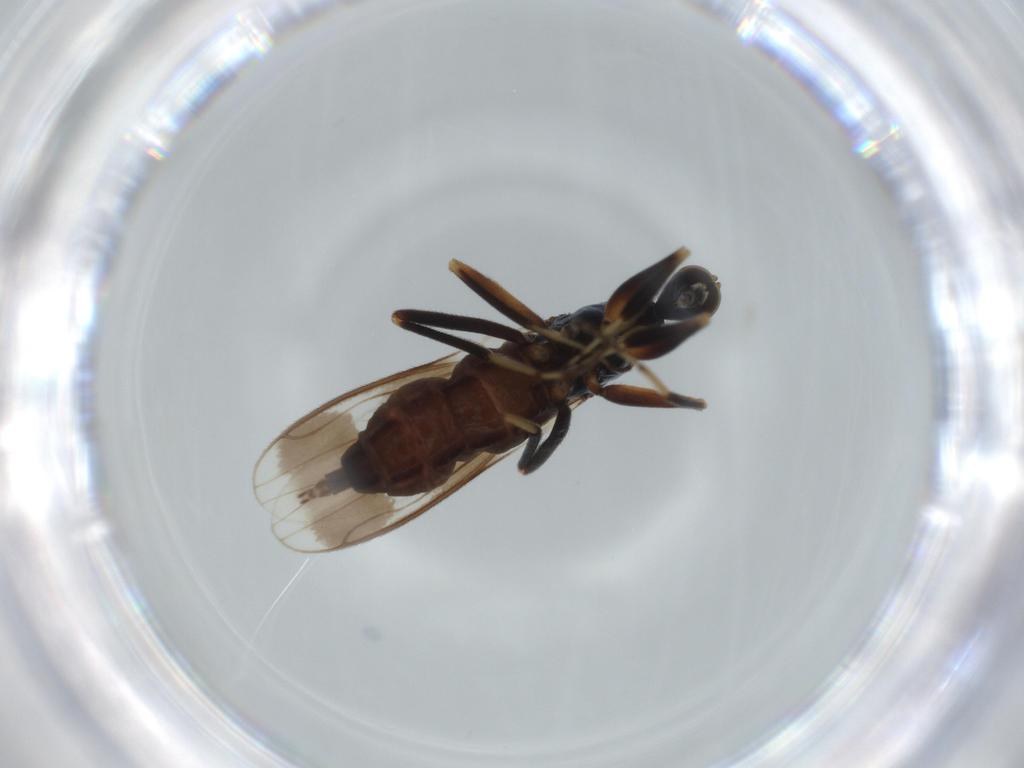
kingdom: Animalia
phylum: Arthropoda
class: Insecta
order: Diptera
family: Hybotidae
